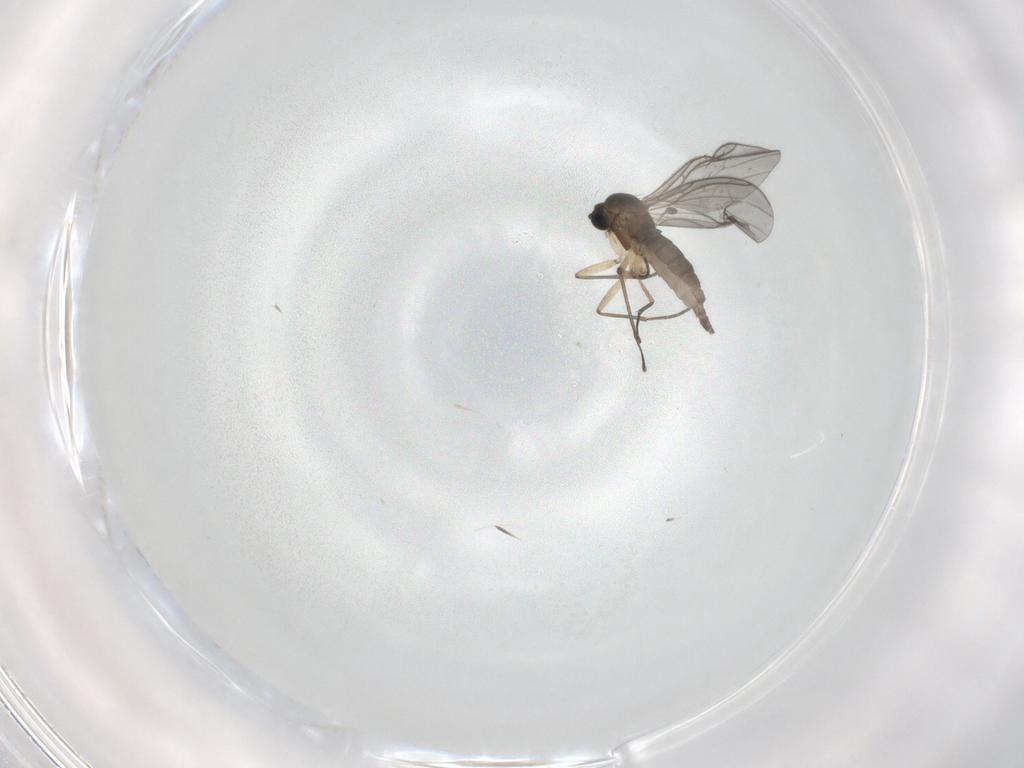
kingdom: Animalia
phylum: Arthropoda
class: Insecta
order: Diptera
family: Sciaridae
